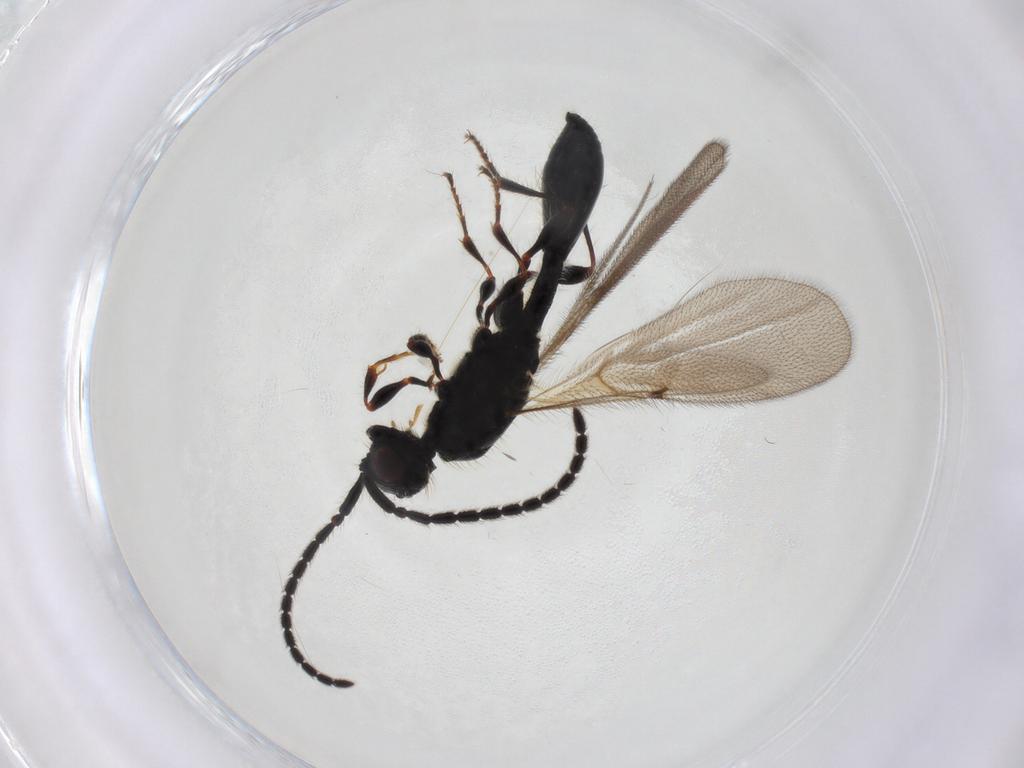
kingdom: Animalia
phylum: Arthropoda
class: Insecta
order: Hymenoptera
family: Diapriidae
